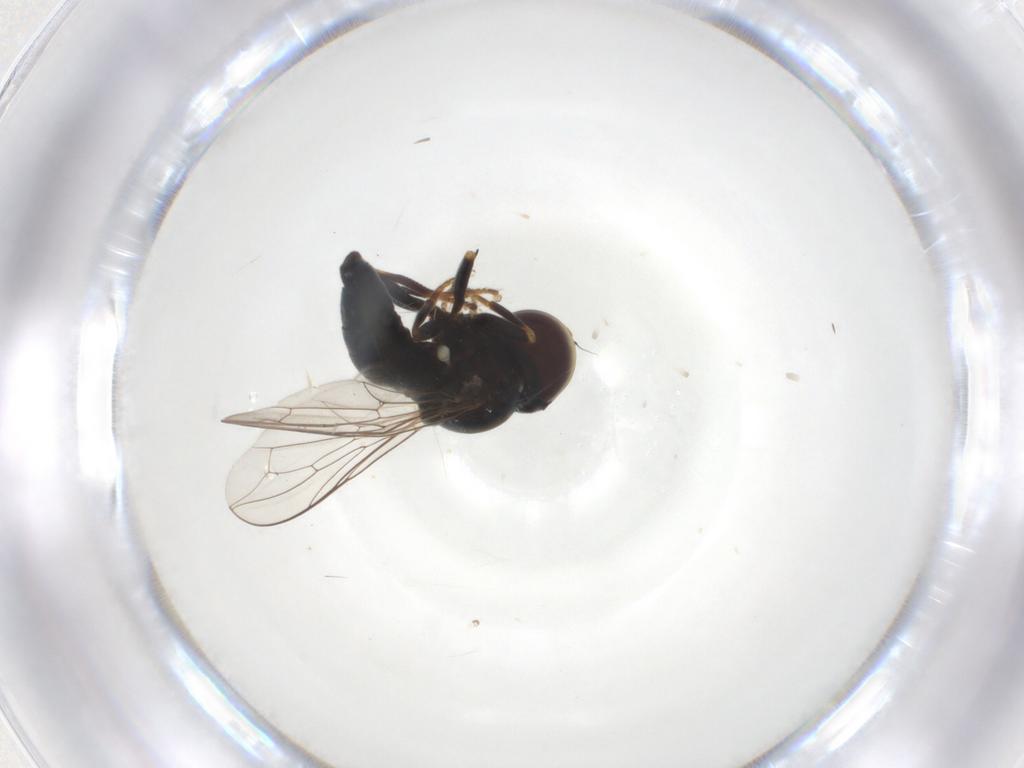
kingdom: Animalia
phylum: Arthropoda
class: Insecta
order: Diptera
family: Pipunculidae
